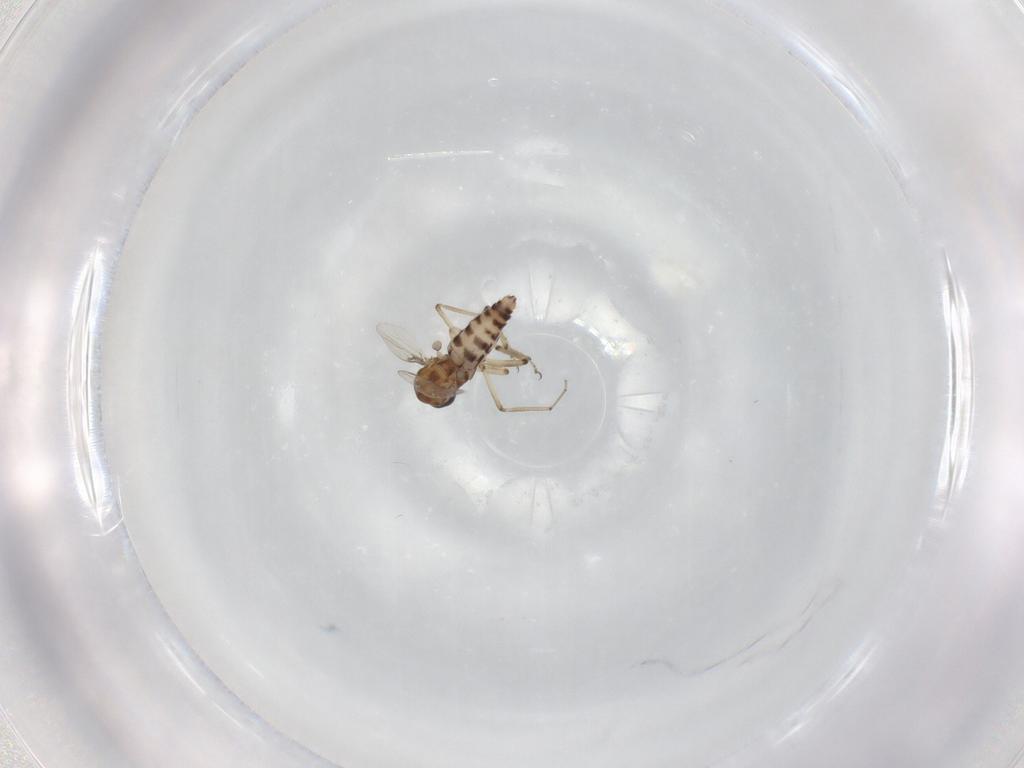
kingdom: Animalia
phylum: Arthropoda
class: Insecta
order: Diptera
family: Ceratopogonidae
